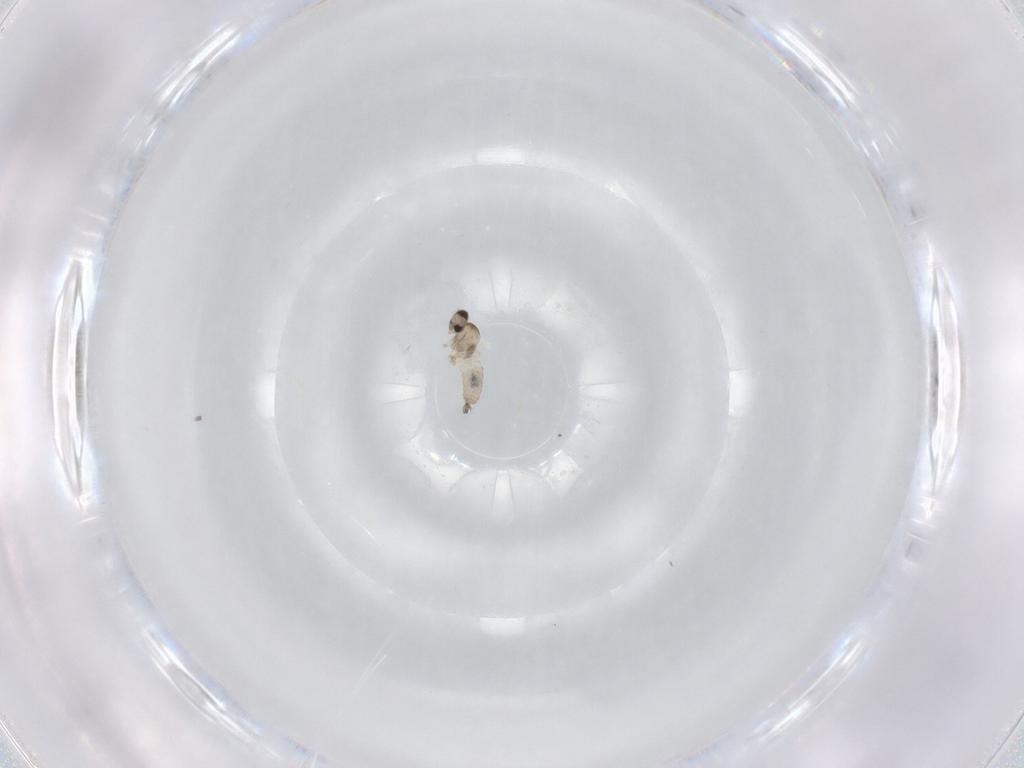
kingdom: Animalia
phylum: Arthropoda
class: Insecta
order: Diptera
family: Cecidomyiidae
